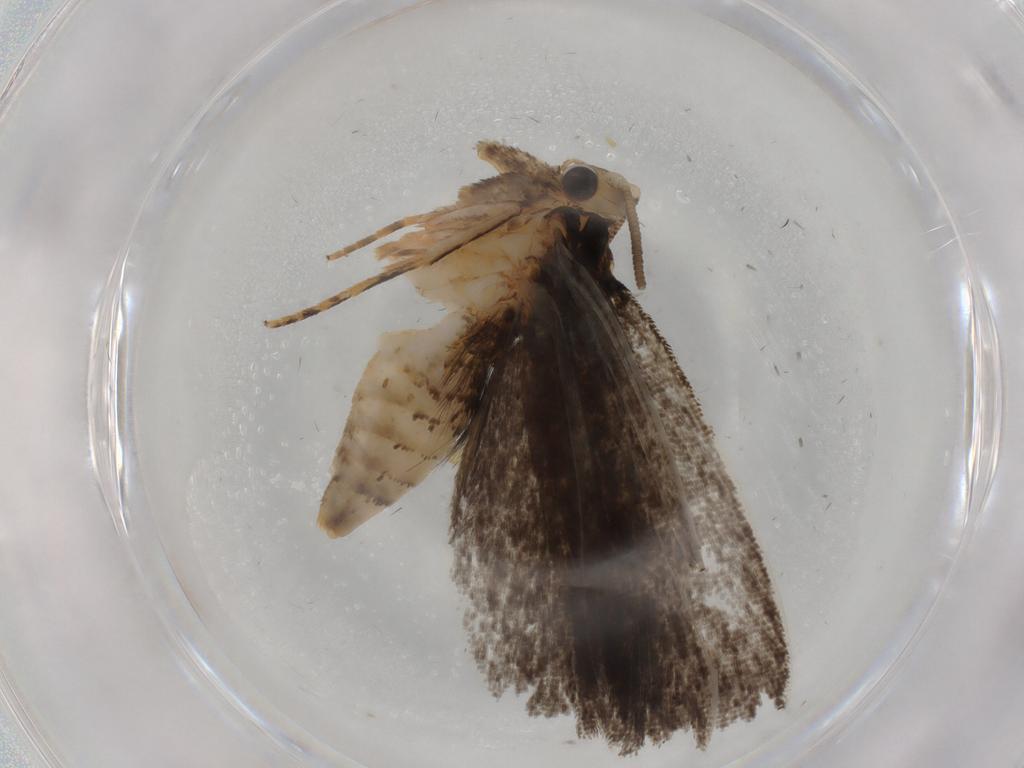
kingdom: Animalia
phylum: Arthropoda
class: Insecta
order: Lepidoptera
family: Tineidae
